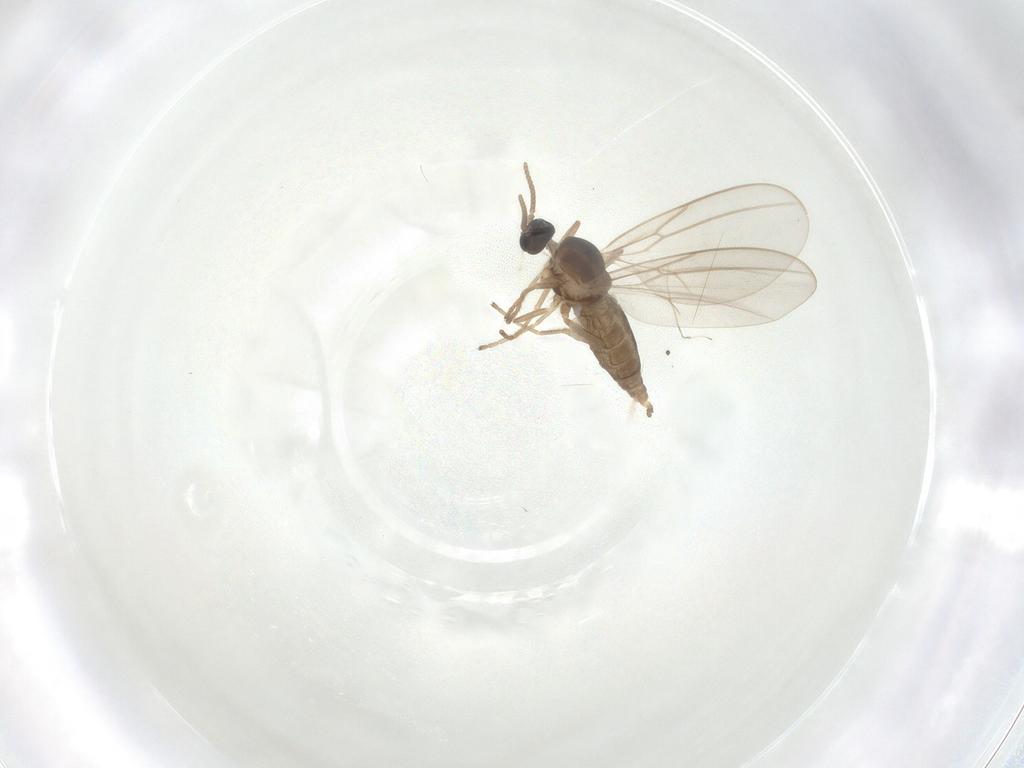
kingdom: Animalia
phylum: Arthropoda
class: Insecta
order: Diptera
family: Cecidomyiidae
